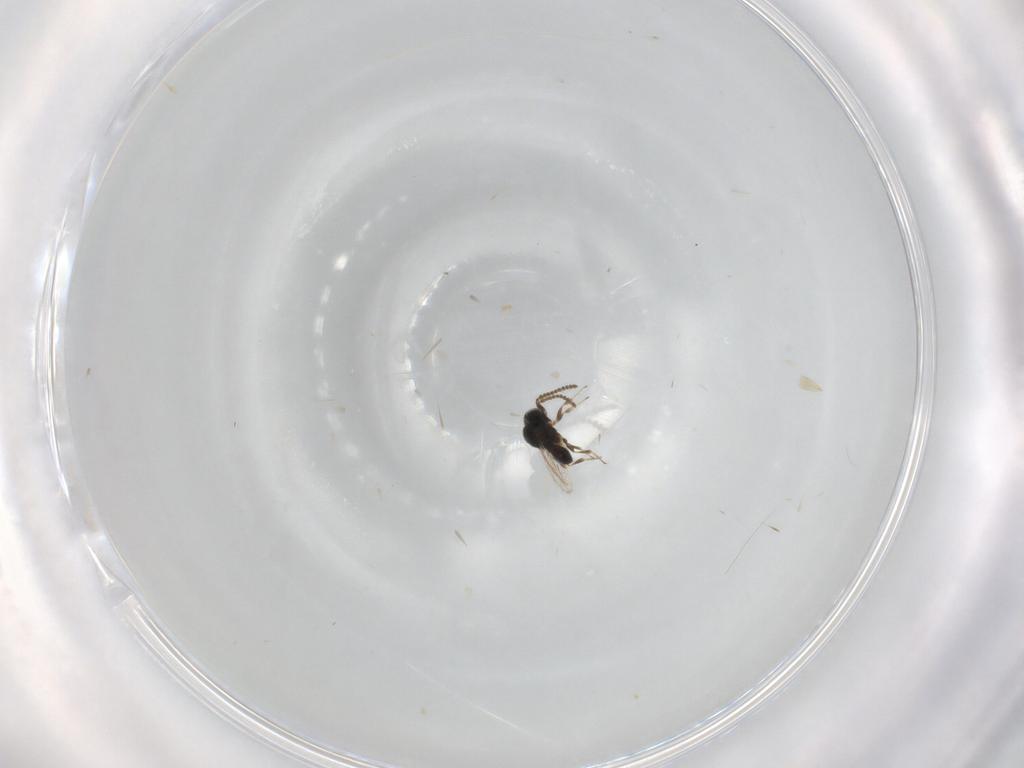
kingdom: Animalia
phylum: Arthropoda
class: Insecta
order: Hymenoptera
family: Scelionidae
